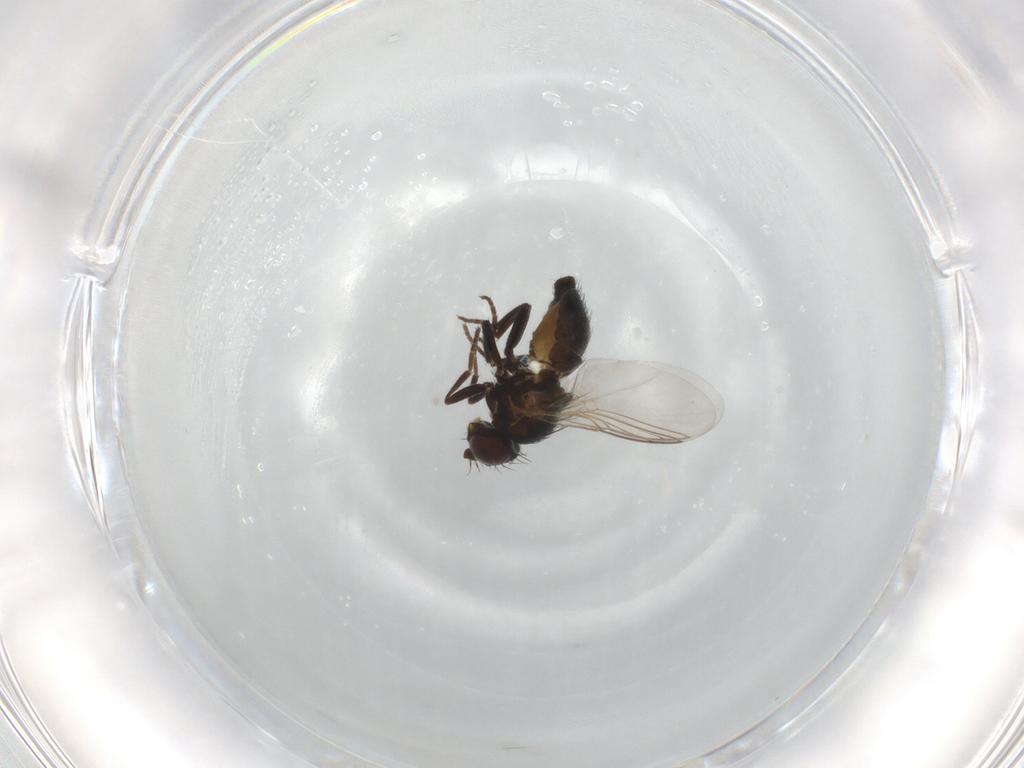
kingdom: Animalia
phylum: Arthropoda
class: Insecta
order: Diptera
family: Chloropidae
